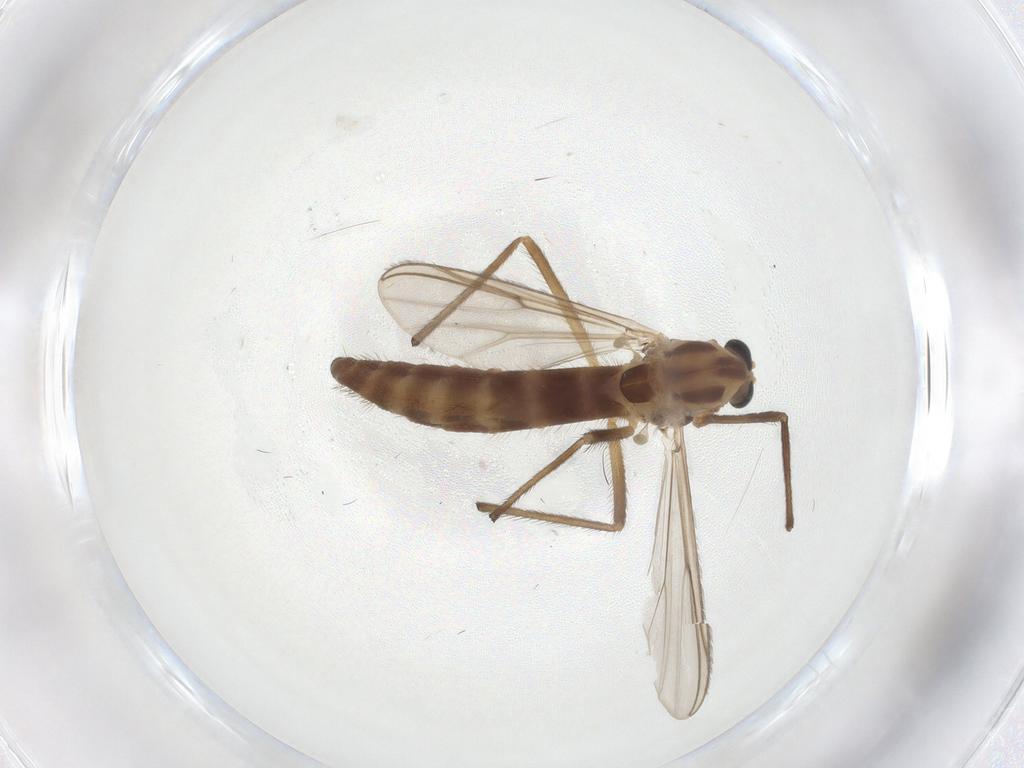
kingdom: Animalia
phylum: Arthropoda
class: Insecta
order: Diptera
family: Chironomidae
